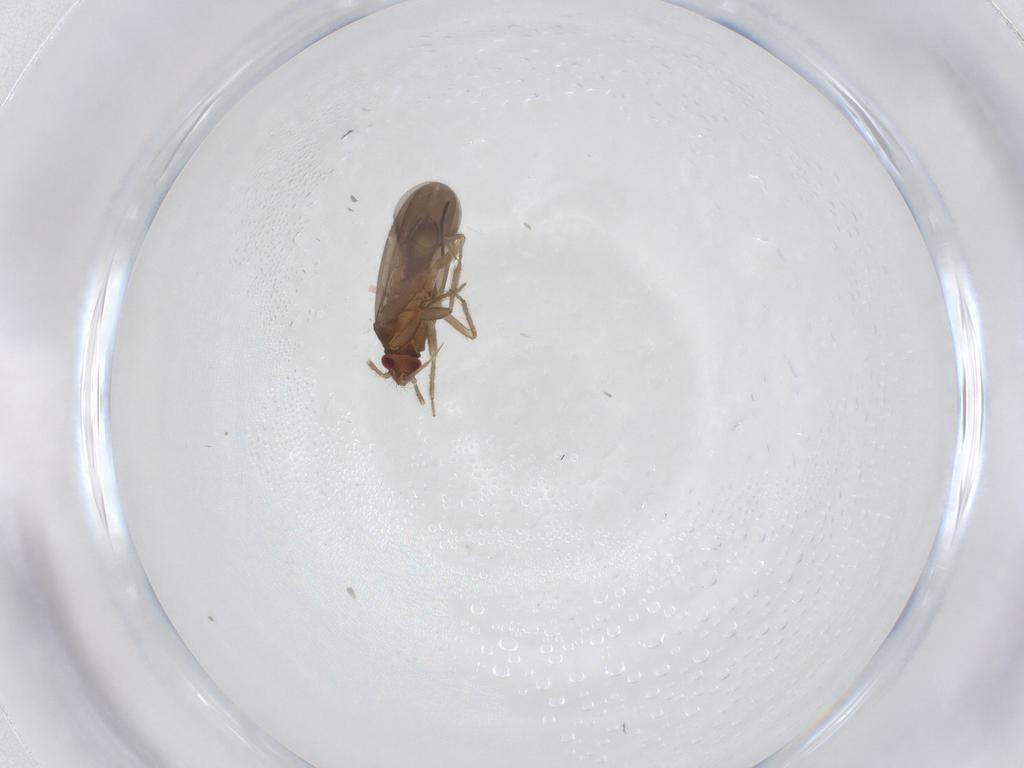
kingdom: Animalia
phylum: Arthropoda
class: Insecta
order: Hemiptera
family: Ceratocombidae
